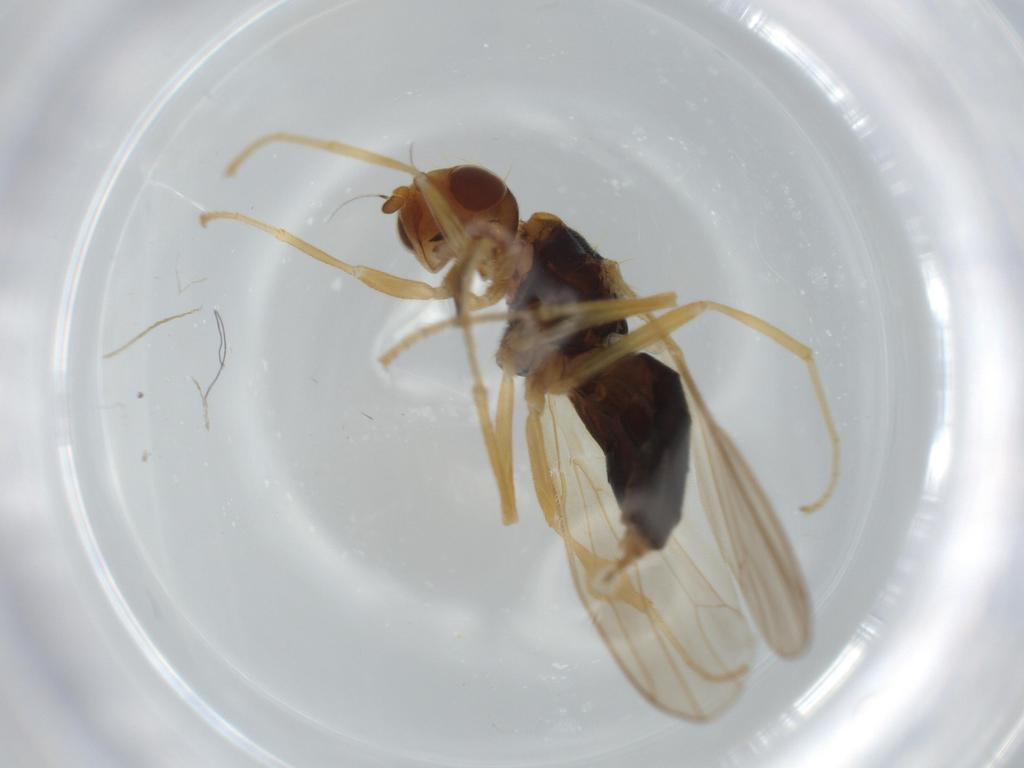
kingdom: Animalia
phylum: Arthropoda
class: Insecta
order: Diptera
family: Psilidae
